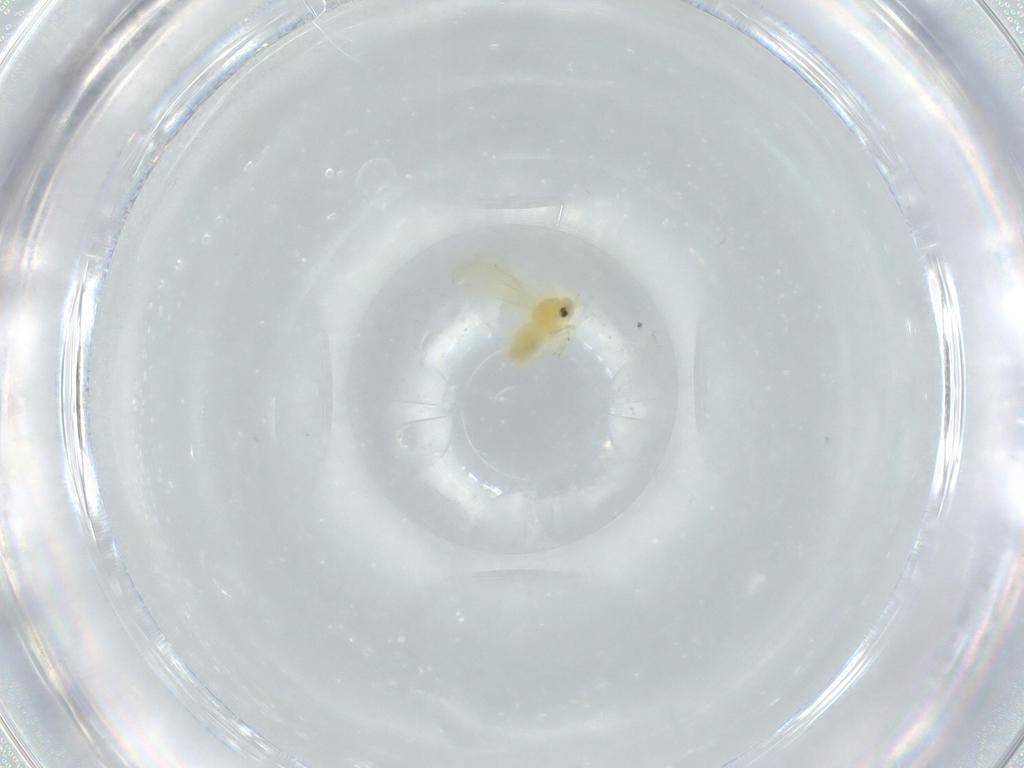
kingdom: Animalia
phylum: Arthropoda
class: Insecta
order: Hemiptera
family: Aleyrodidae
